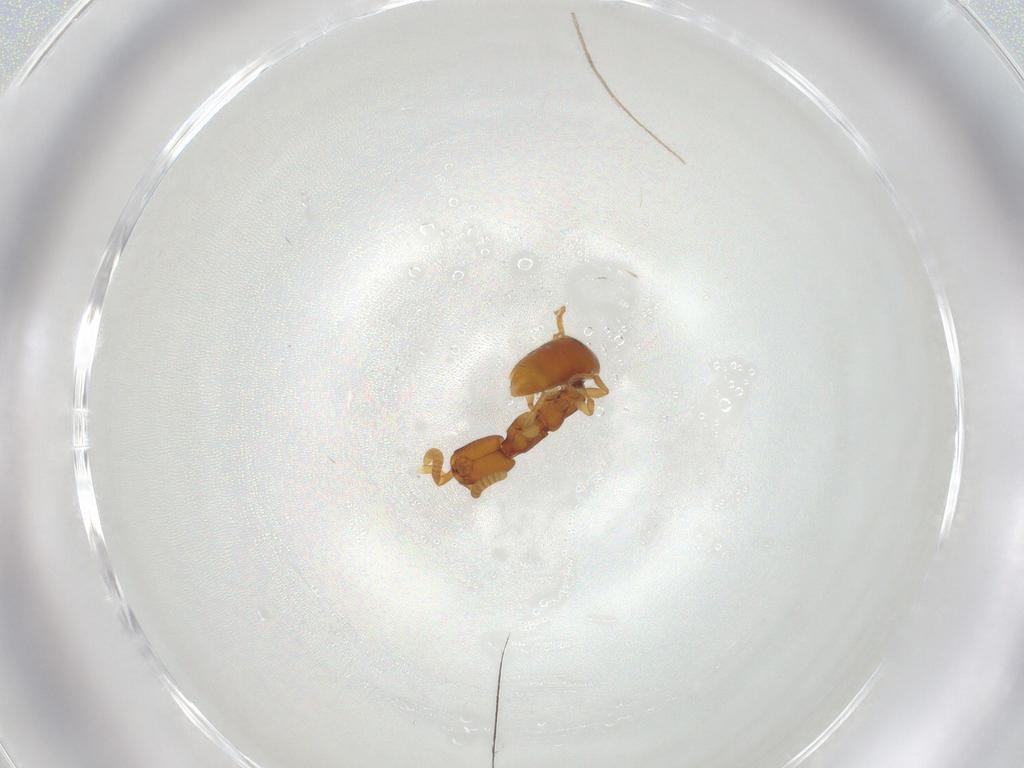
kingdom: Animalia
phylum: Arthropoda
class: Insecta
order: Hymenoptera
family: Bethylidae
